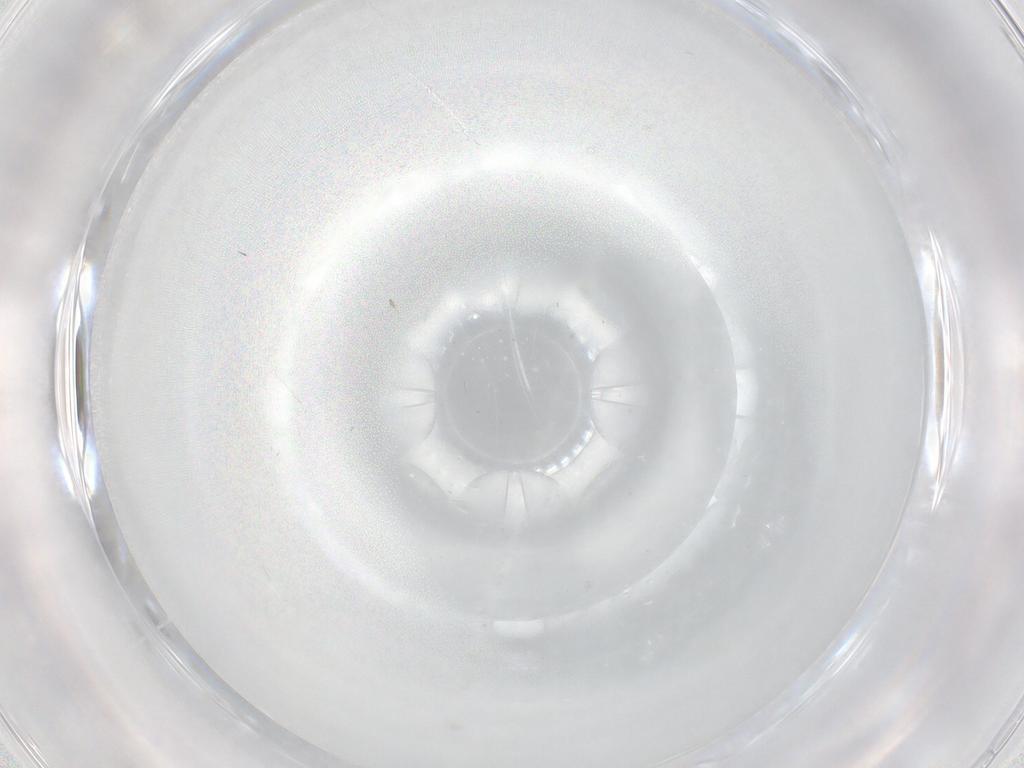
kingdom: Animalia
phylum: Arthropoda
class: Insecta
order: Diptera
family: Cecidomyiidae
